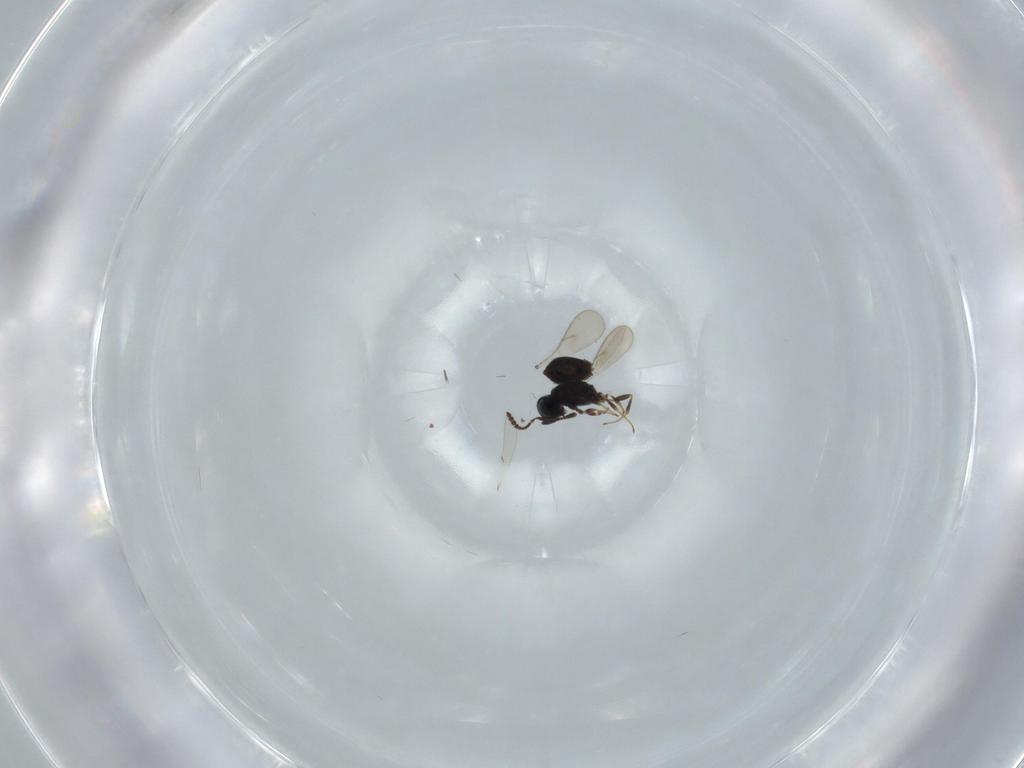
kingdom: Animalia
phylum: Arthropoda
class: Insecta
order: Hymenoptera
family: Scelionidae
